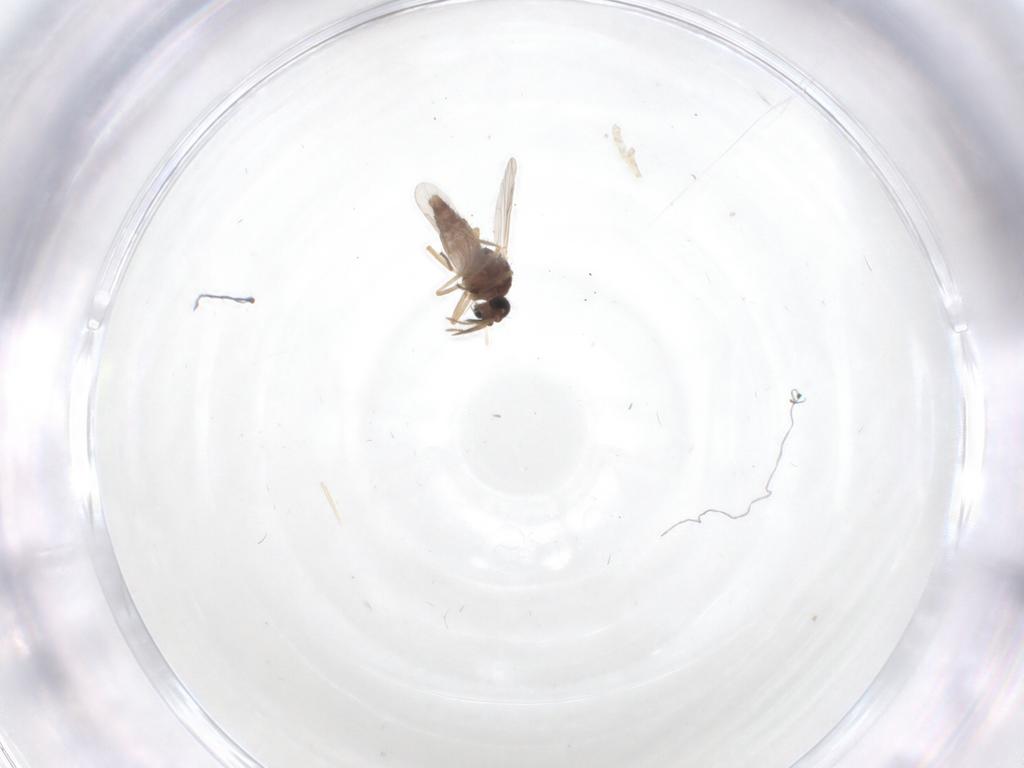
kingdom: Animalia
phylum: Arthropoda
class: Insecta
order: Diptera
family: Ceratopogonidae
